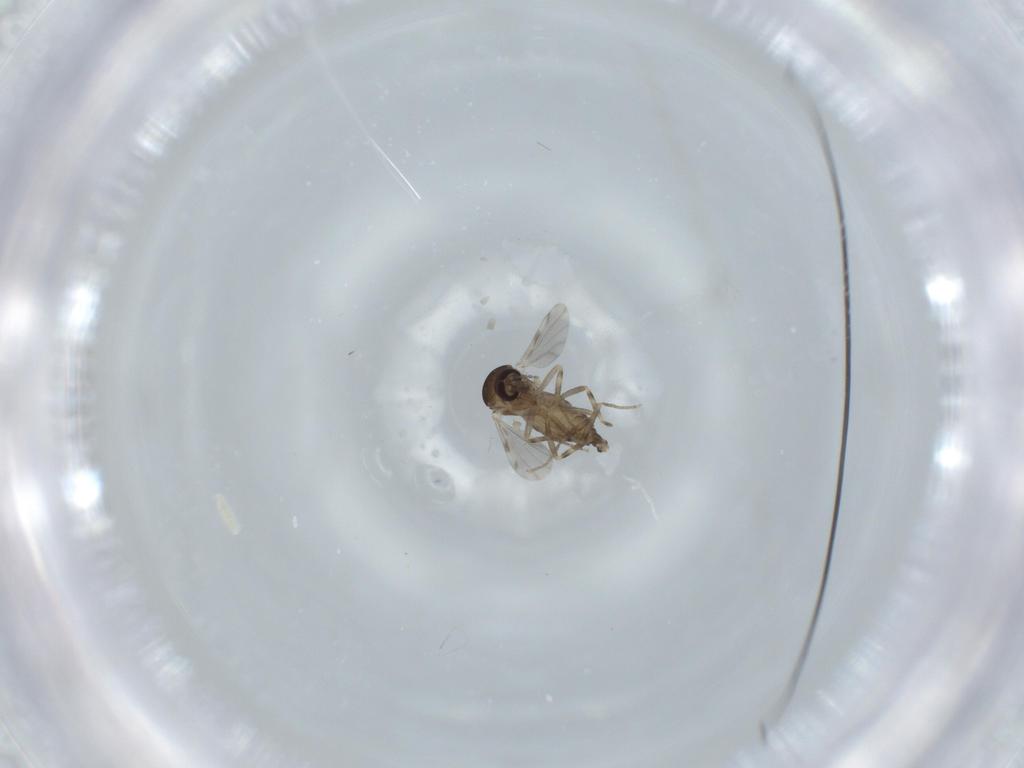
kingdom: Animalia
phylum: Arthropoda
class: Insecta
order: Diptera
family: Ceratopogonidae
